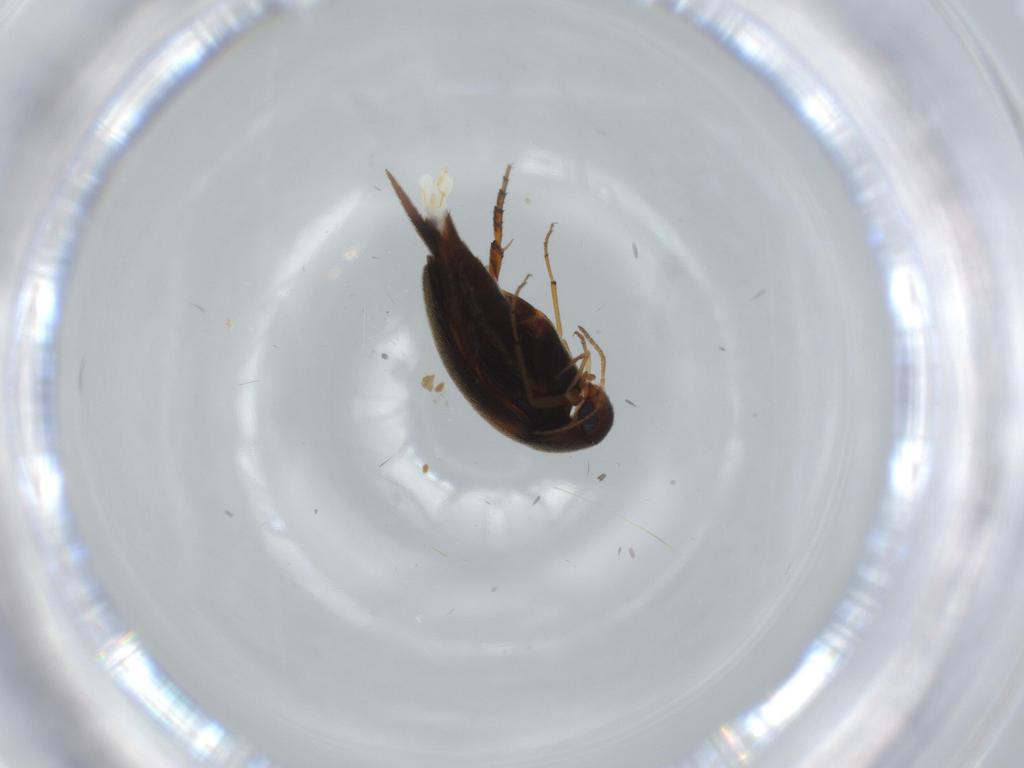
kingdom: Animalia
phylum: Arthropoda
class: Insecta
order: Coleoptera
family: Mordellidae
